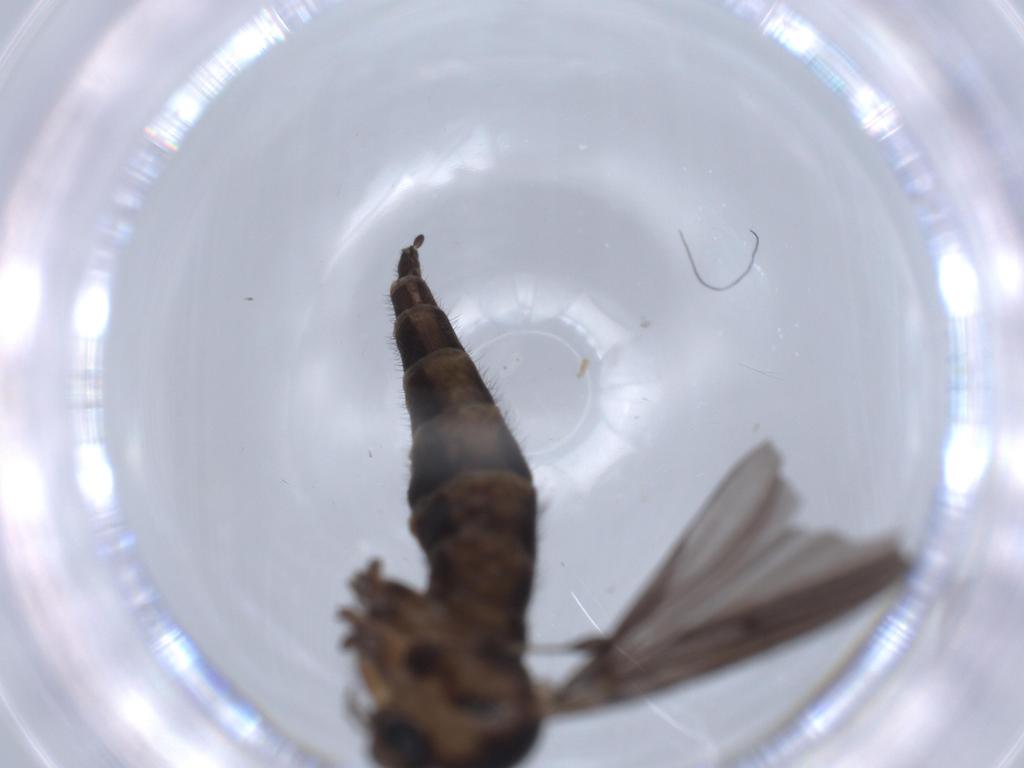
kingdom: Animalia
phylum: Arthropoda
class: Insecta
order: Diptera
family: Sciaridae
